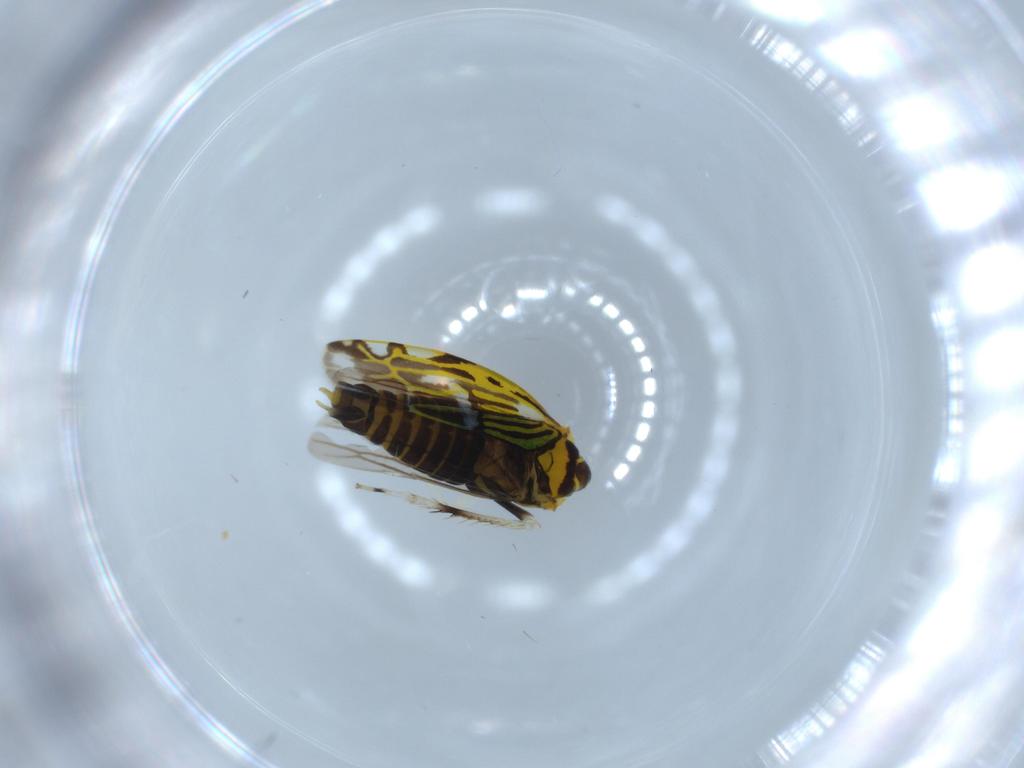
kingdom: Animalia
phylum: Arthropoda
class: Insecta
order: Hemiptera
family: Cicadellidae
